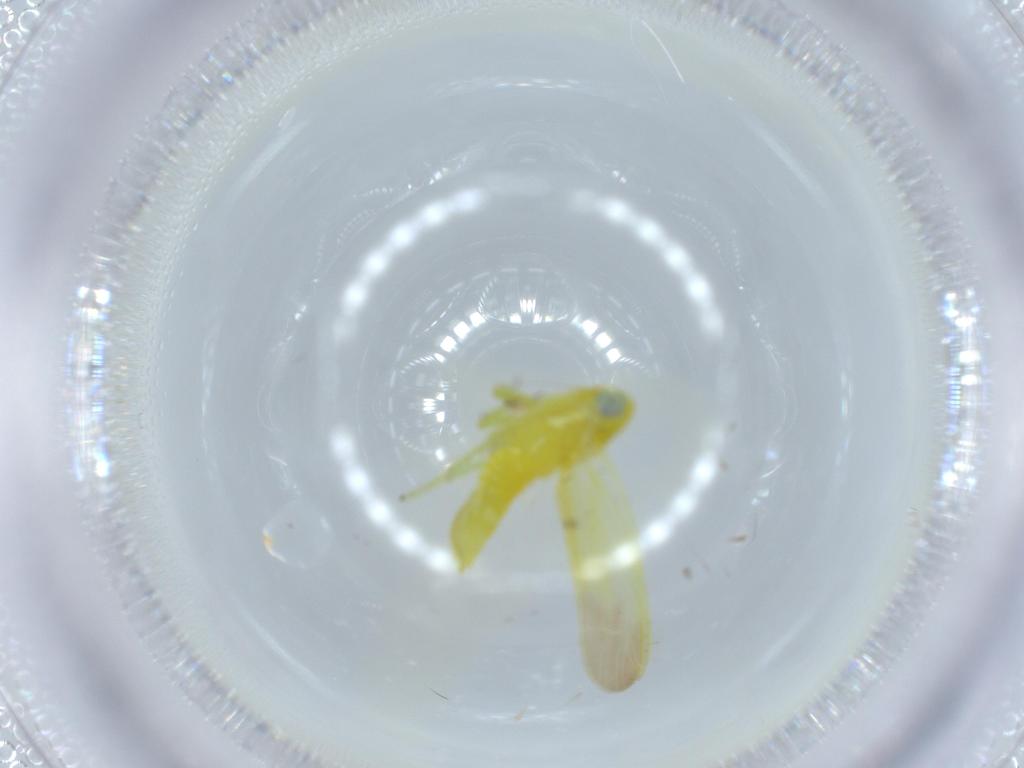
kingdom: Animalia
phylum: Arthropoda
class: Insecta
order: Hemiptera
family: Cicadellidae
